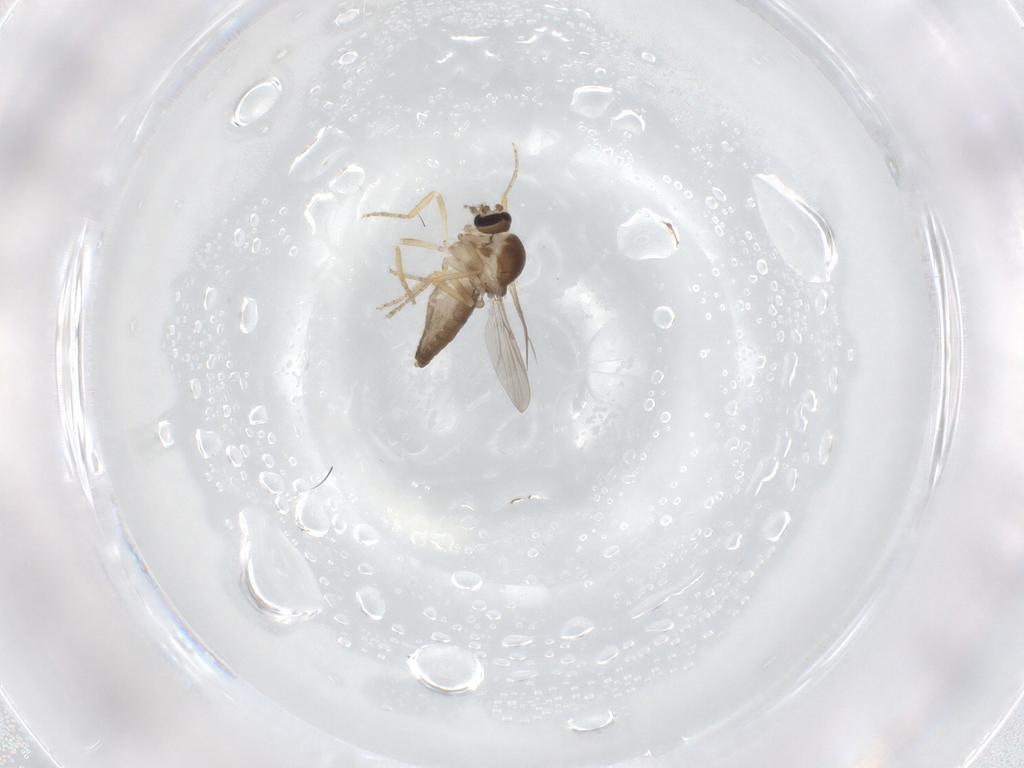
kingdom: Animalia
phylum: Arthropoda
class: Insecta
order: Diptera
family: Ceratopogonidae
